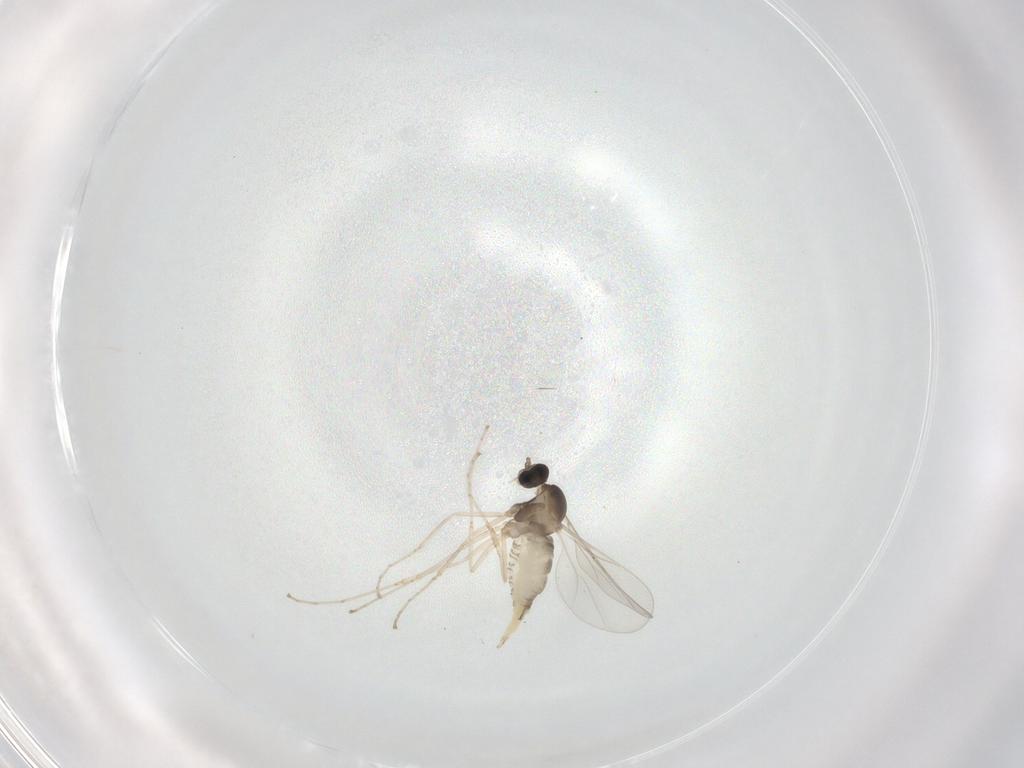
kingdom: Animalia
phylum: Arthropoda
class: Insecta
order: Diptera
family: Cecidomyiidae
